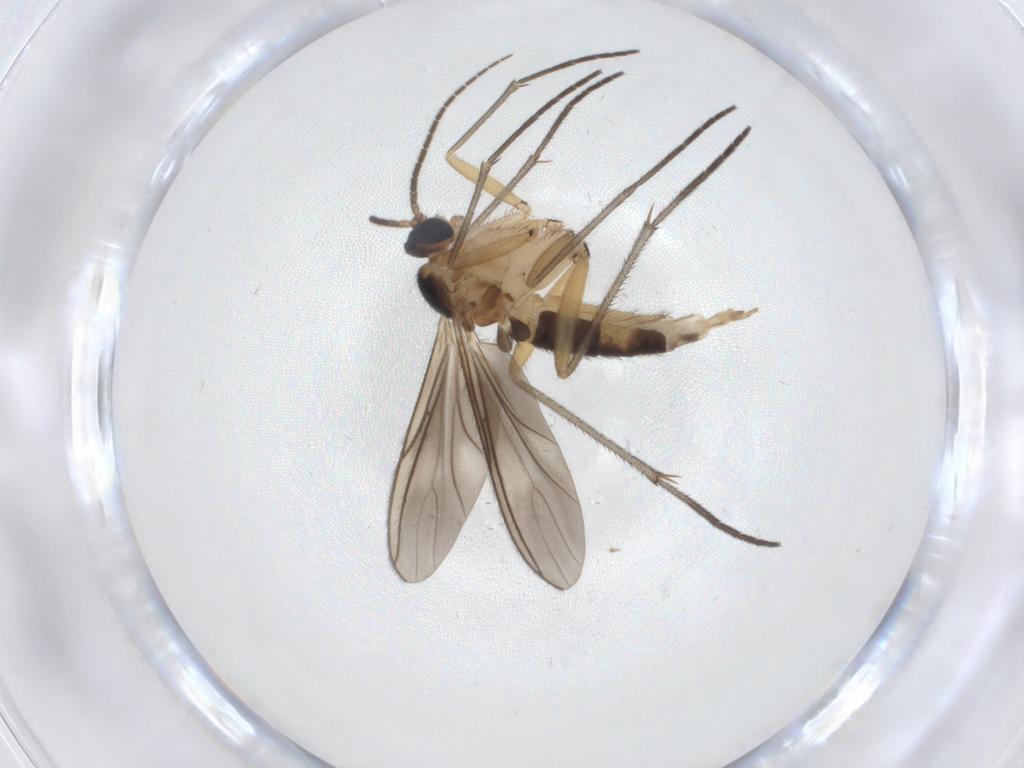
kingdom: Animalia
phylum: Arthropoda
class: Insecta
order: Diptera
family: Sciaridae
